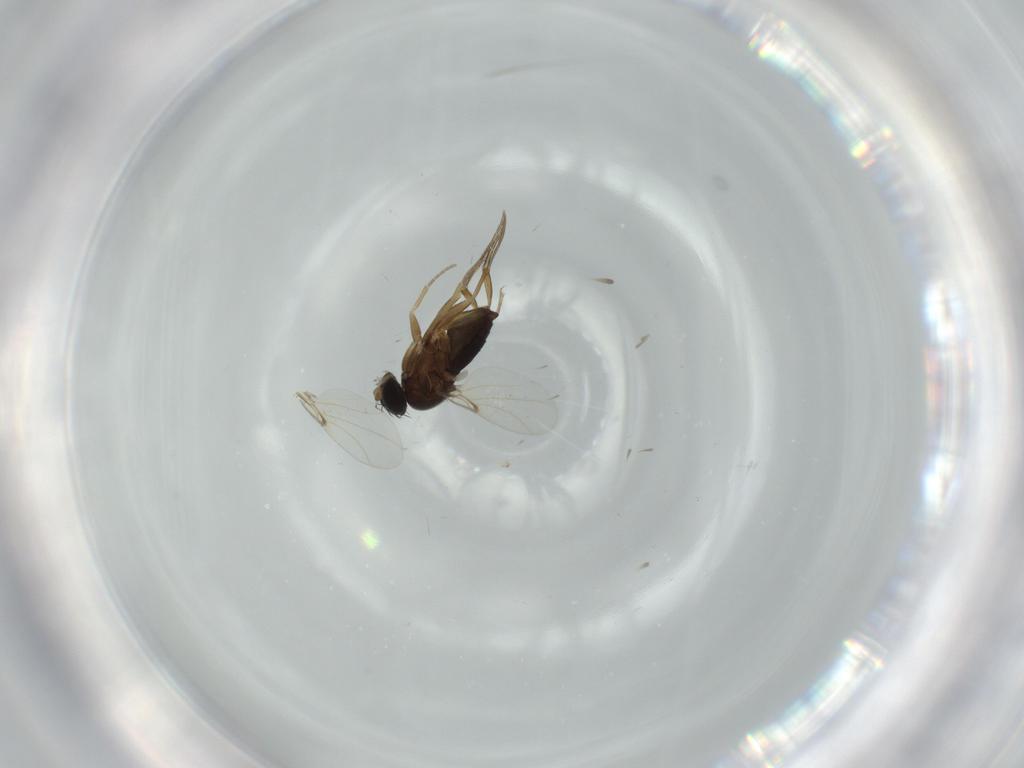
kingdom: Animalia
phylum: Arthropoda
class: Insecta
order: Diptera
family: Phoridae
